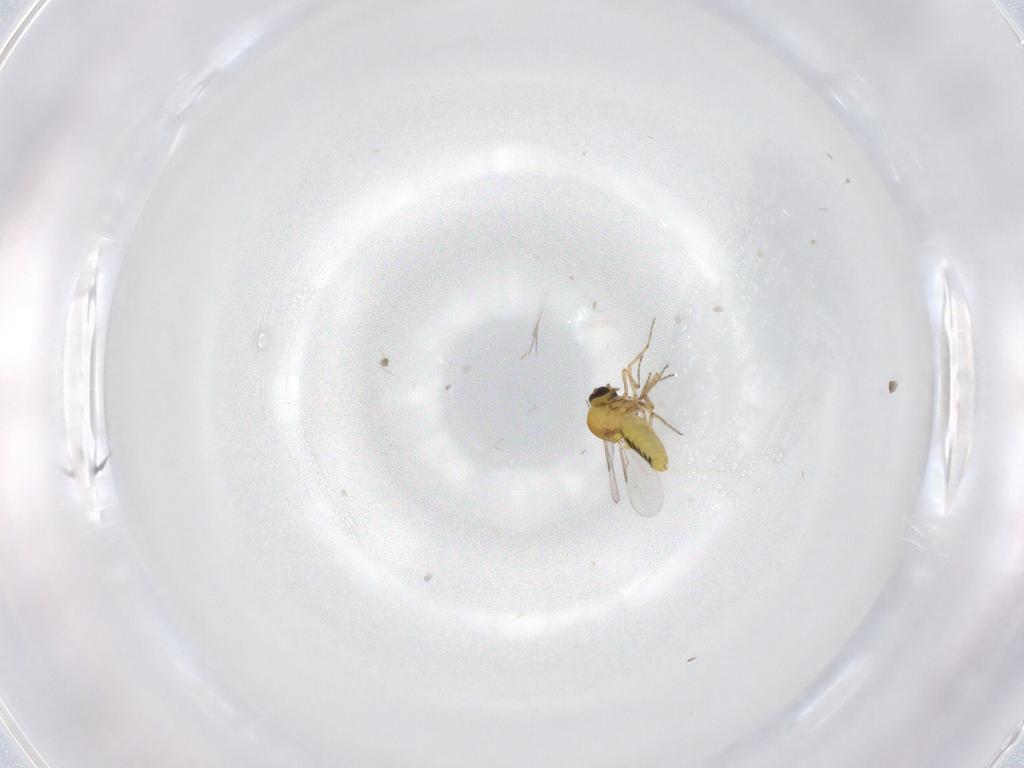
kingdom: Animalia
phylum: Arthropoda
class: Insecta
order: Diptera
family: Ceratopogonidae
